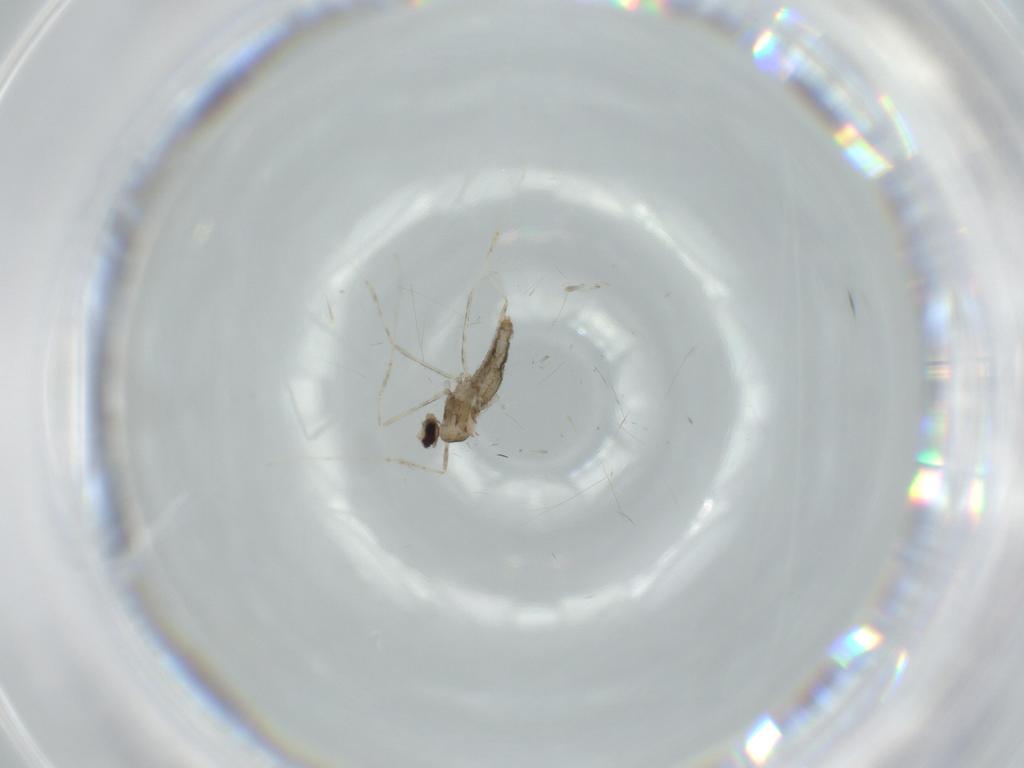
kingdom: Animalia
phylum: Arthropoda
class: Insecta
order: Diptera
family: Cecidomyiidae
